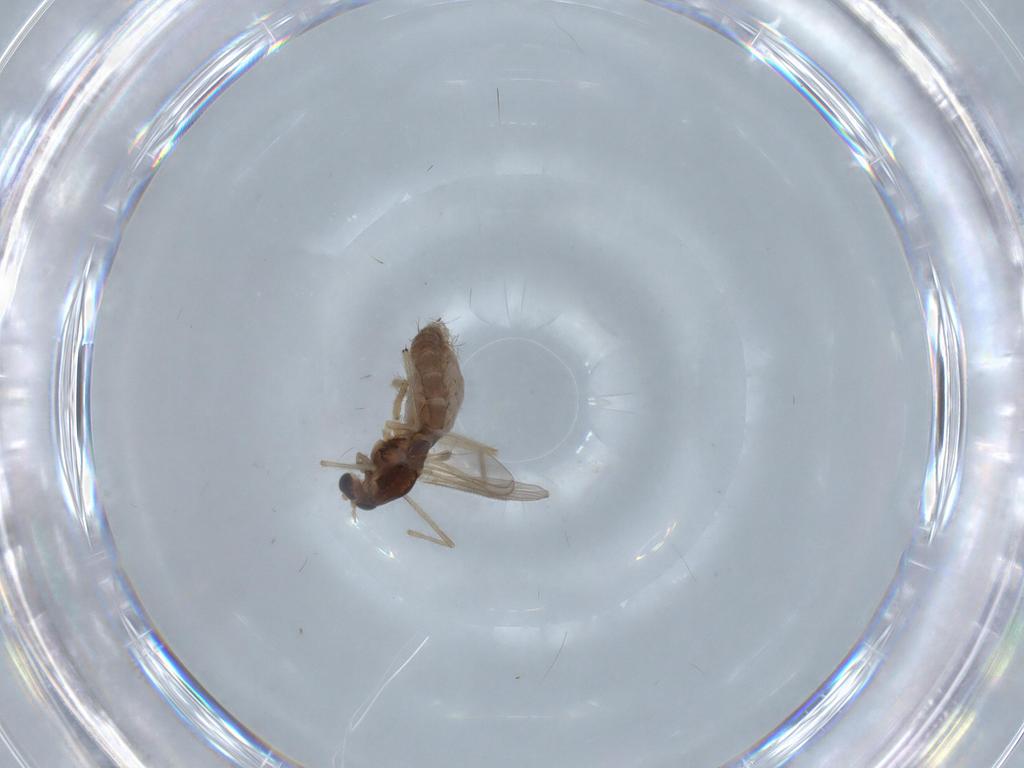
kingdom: Animalia
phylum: Arthropoda
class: Insecta
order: Diptera
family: Chironomidae
